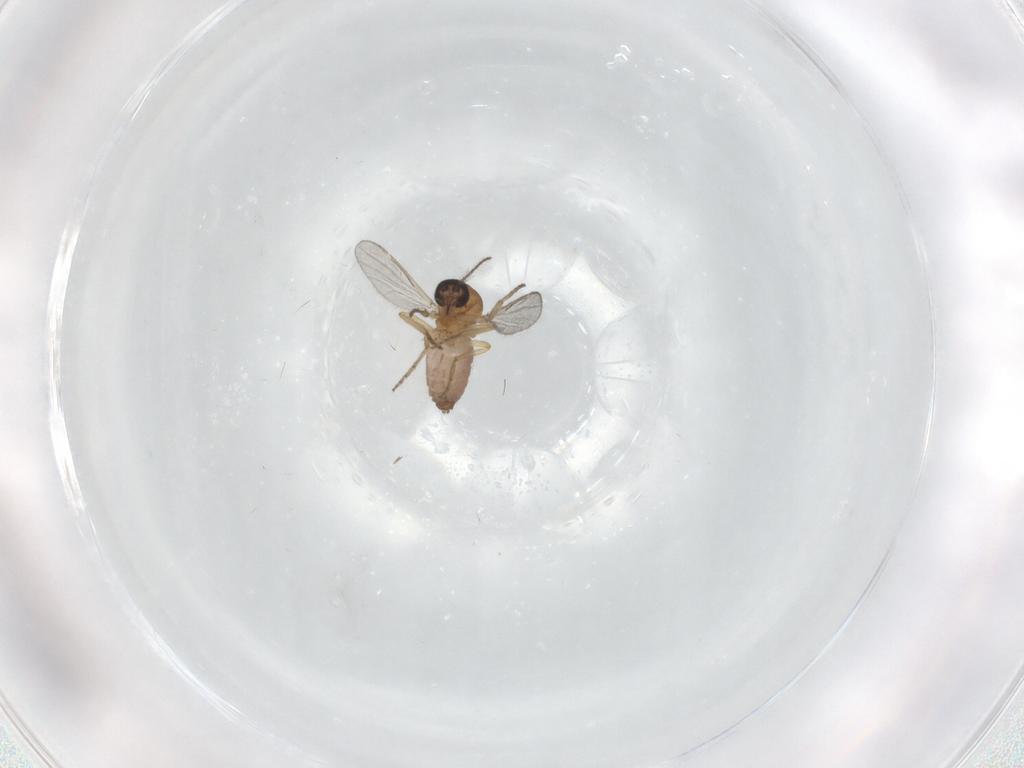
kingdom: Animalia
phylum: Arthropoda
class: Insecta
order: Diptera
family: Chironomidae
